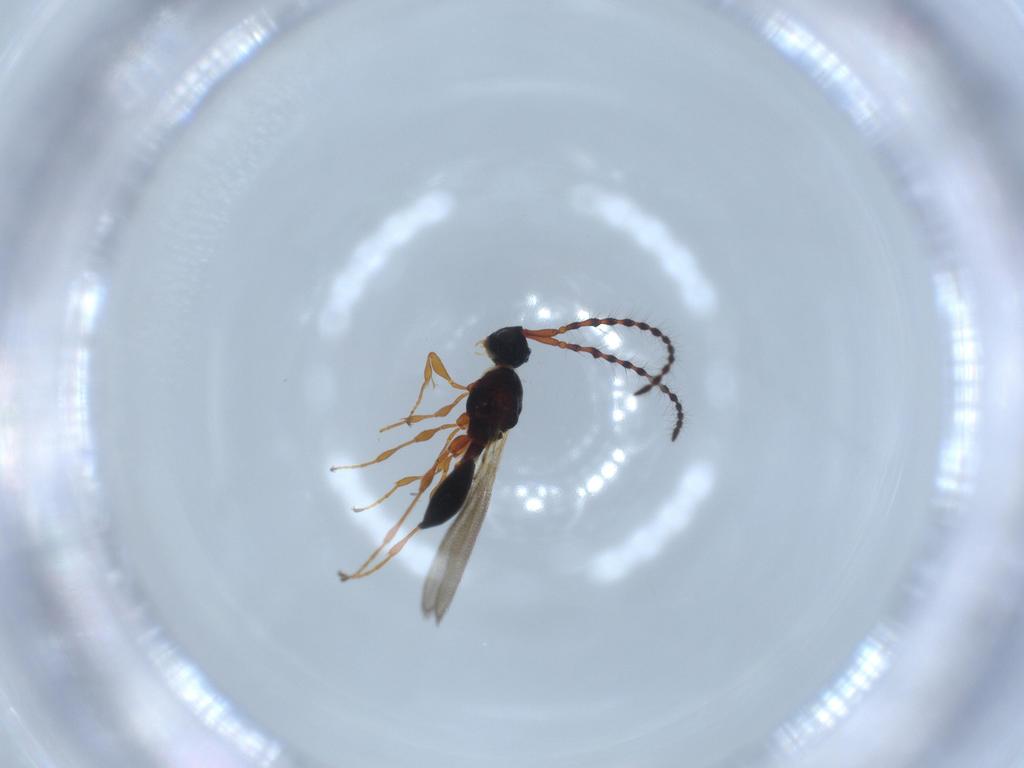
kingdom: Animalia
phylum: Arthropoda
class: Insecta
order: Hymenoptera
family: Diapriidae
